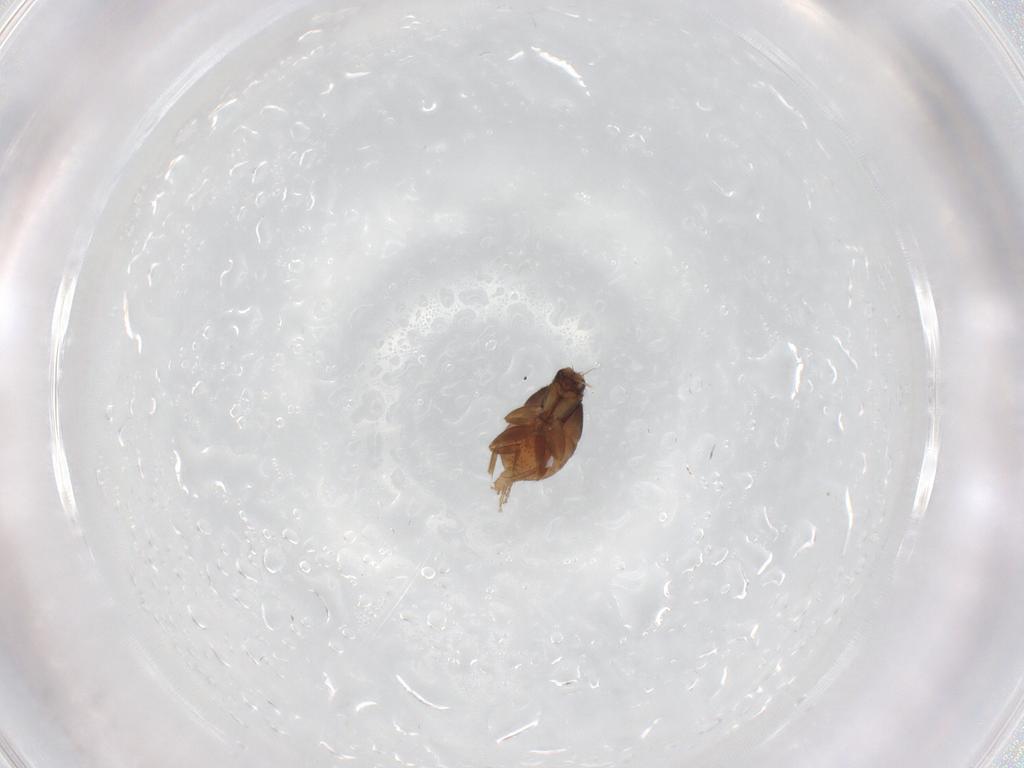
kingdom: Animalia
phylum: Arthropoda
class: Insecta
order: Diptera
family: Phoridae
